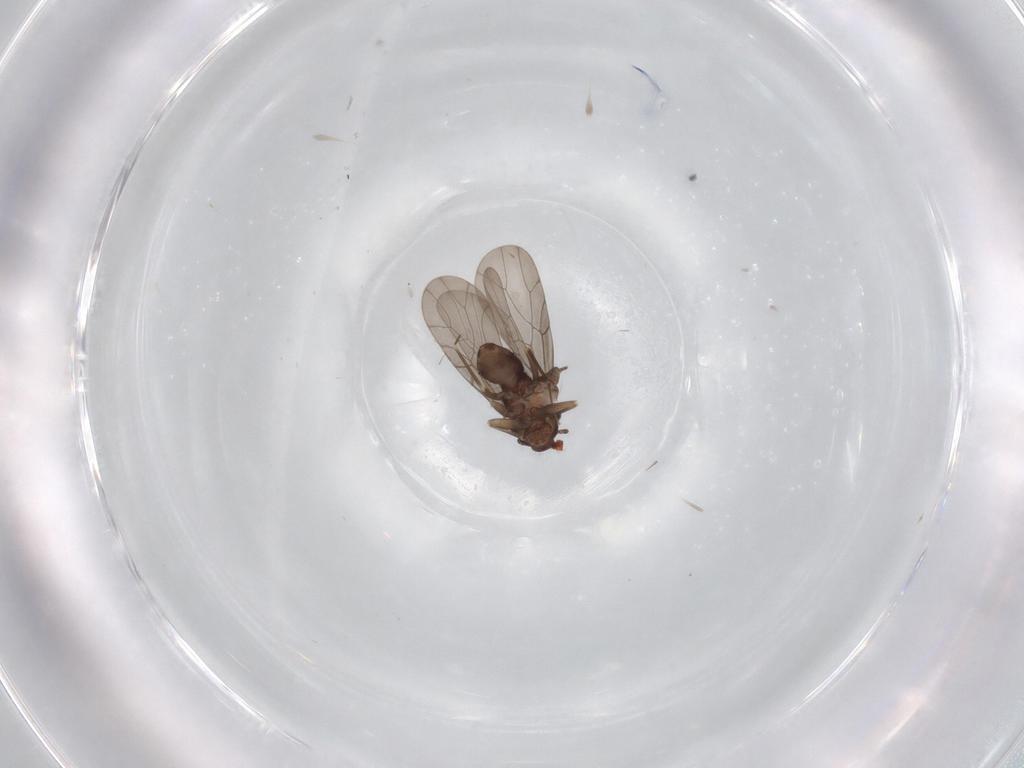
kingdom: Animalia
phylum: Arthropoda
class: Insecta
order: Psocodea
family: Lepidopsocidae
